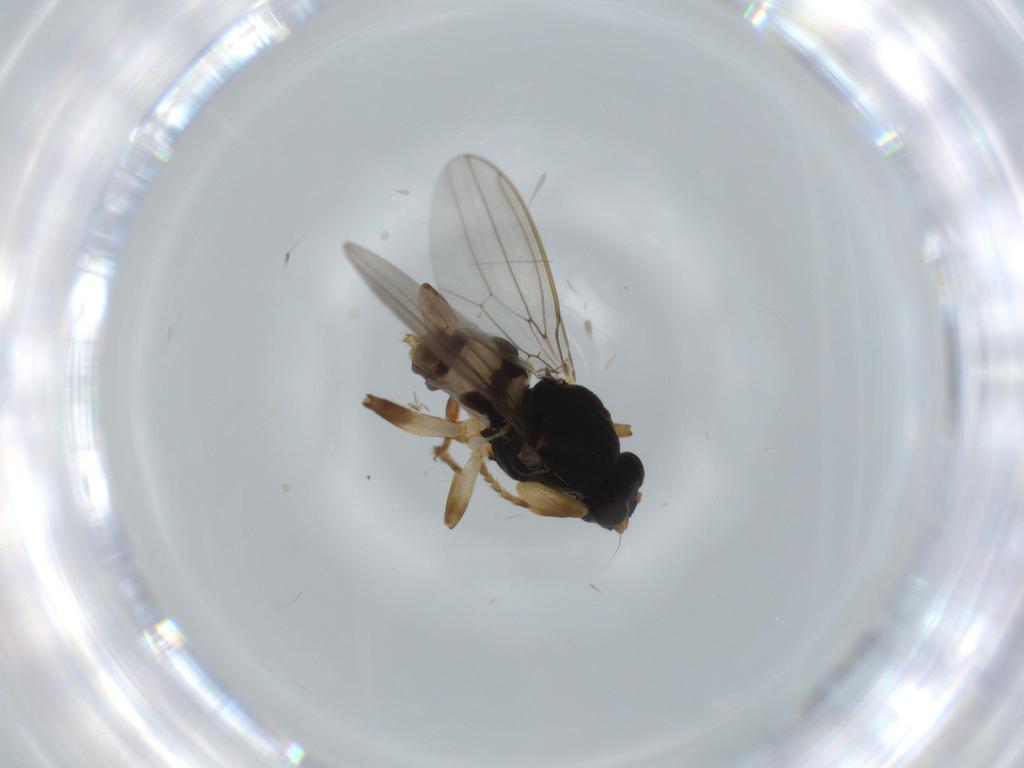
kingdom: Animalia
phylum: Arthropoda
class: Insecta
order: Diptera
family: Sphaeroceridae
